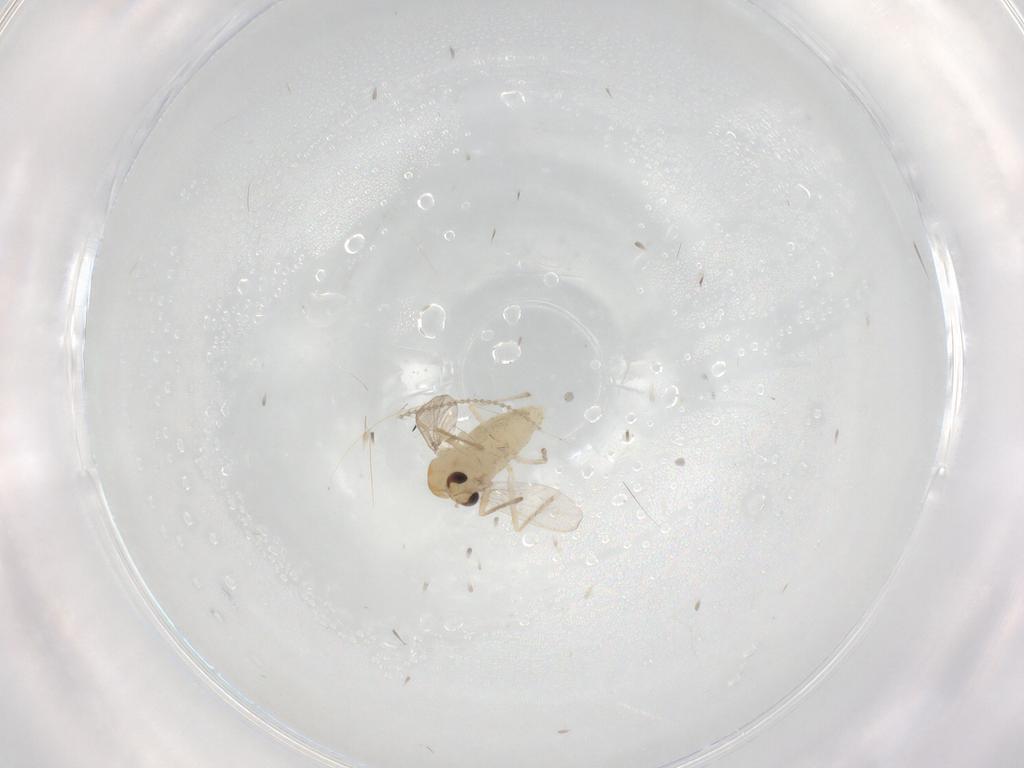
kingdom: Animalia
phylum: Arthropoda
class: Insecta
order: Diptera
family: Chironomidae
